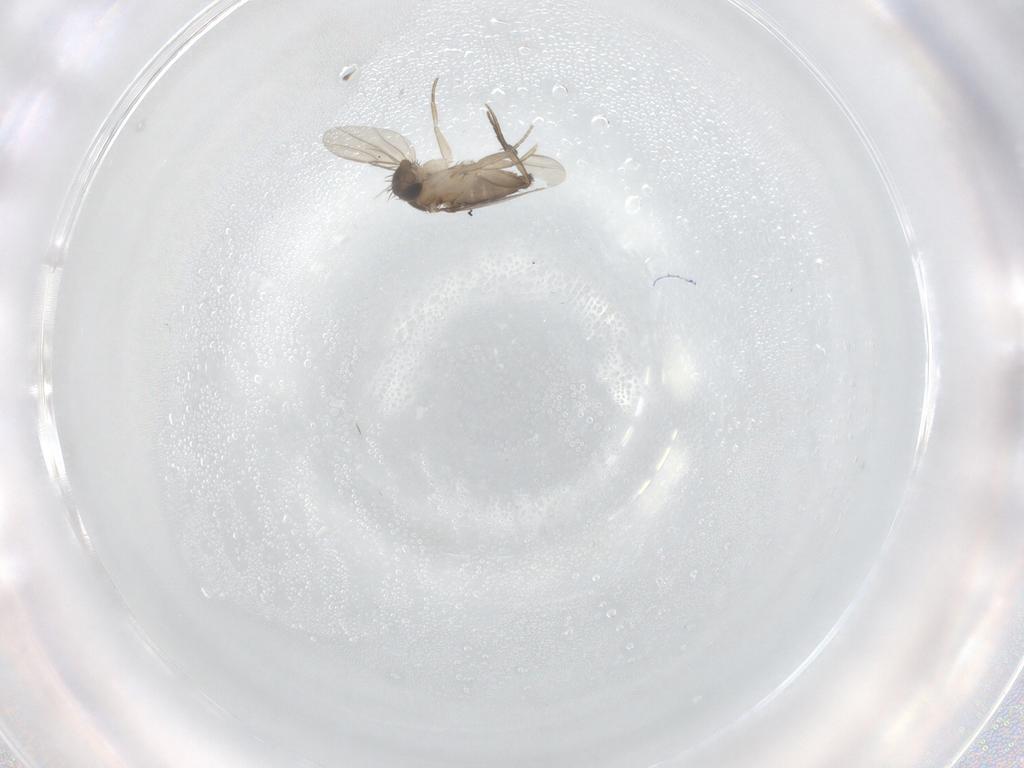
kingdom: Animalia
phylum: Arthropoda
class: Insecta
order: Diptera
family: Phoridae
